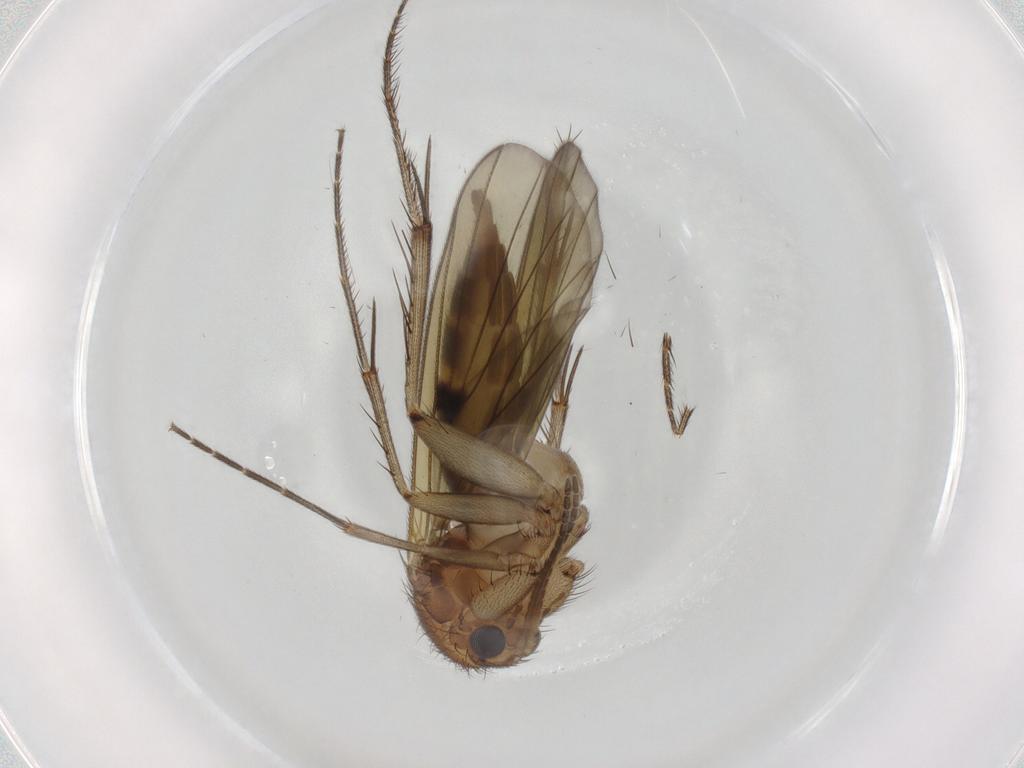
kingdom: Animalia
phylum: Arthropoda
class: Insecta
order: Diptera
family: Mycetophilidae
